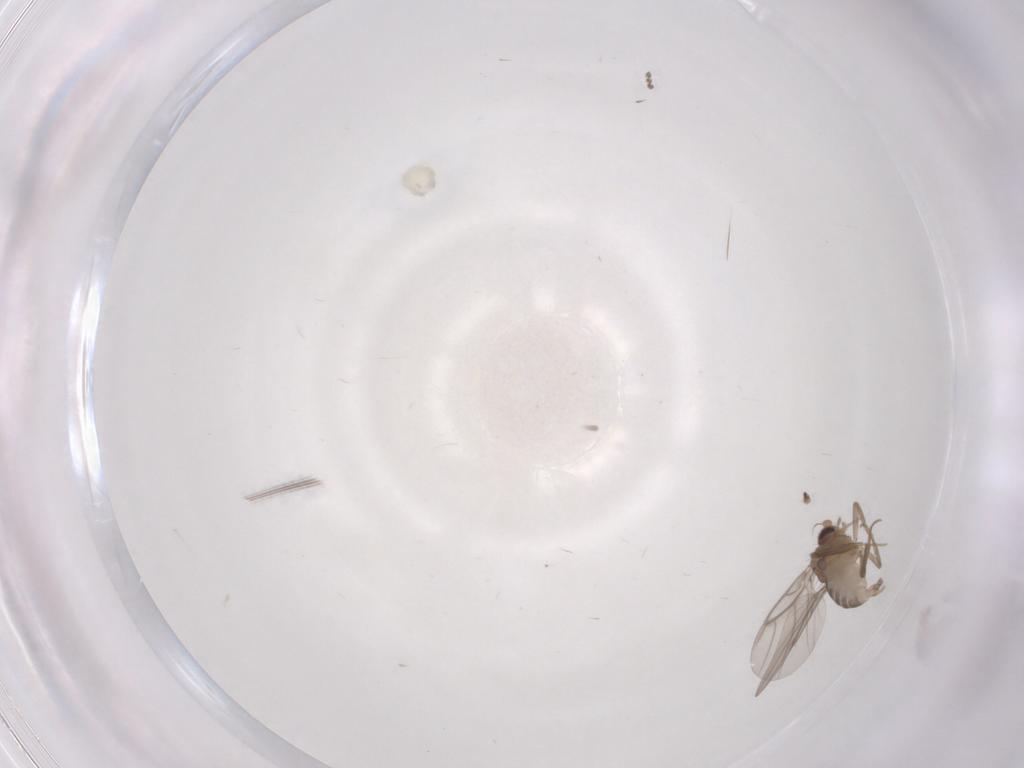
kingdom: Animalia
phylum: Arthropoda
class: Insecta
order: Diptera
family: Cecidomyiidae
